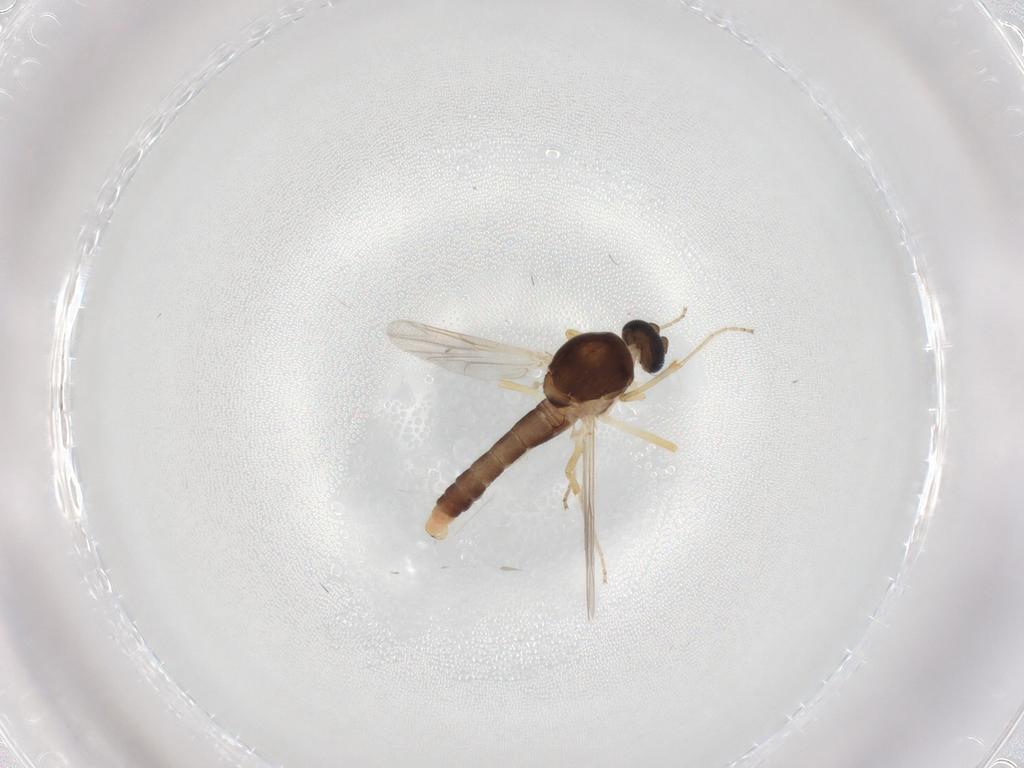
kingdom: Animalia
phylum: Arthropoda
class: Insecta
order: Diptera
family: Ceratopogonidae
